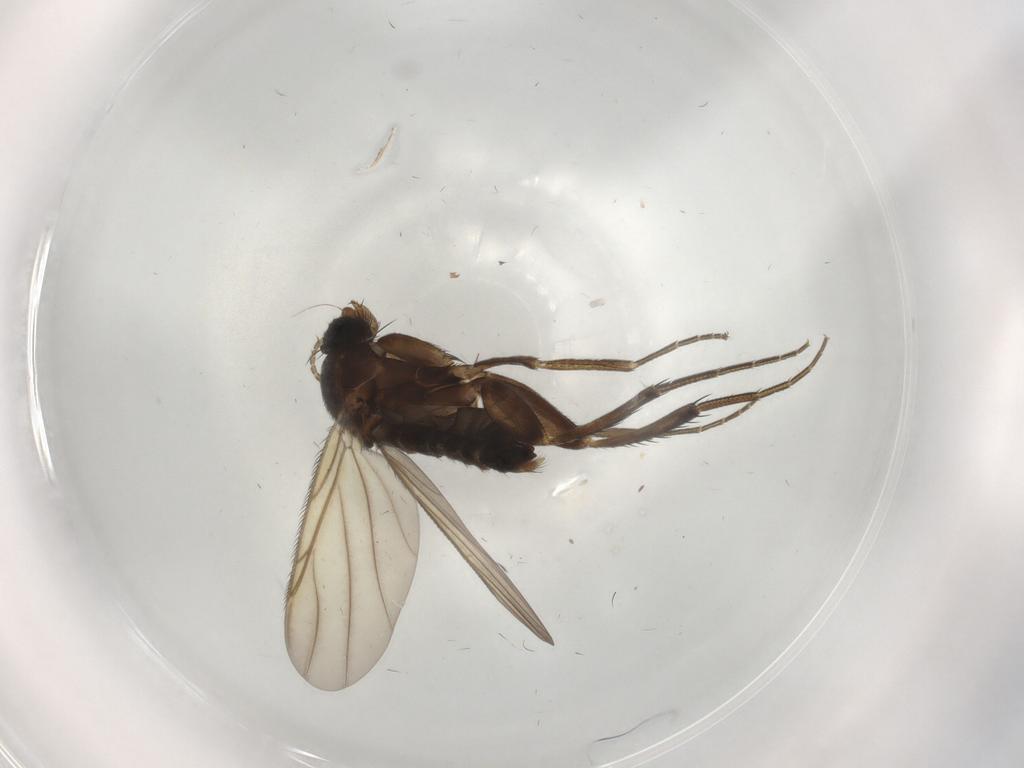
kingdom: Animalia
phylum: Arthropoda
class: Insecta
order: Diptera
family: Phoridae
